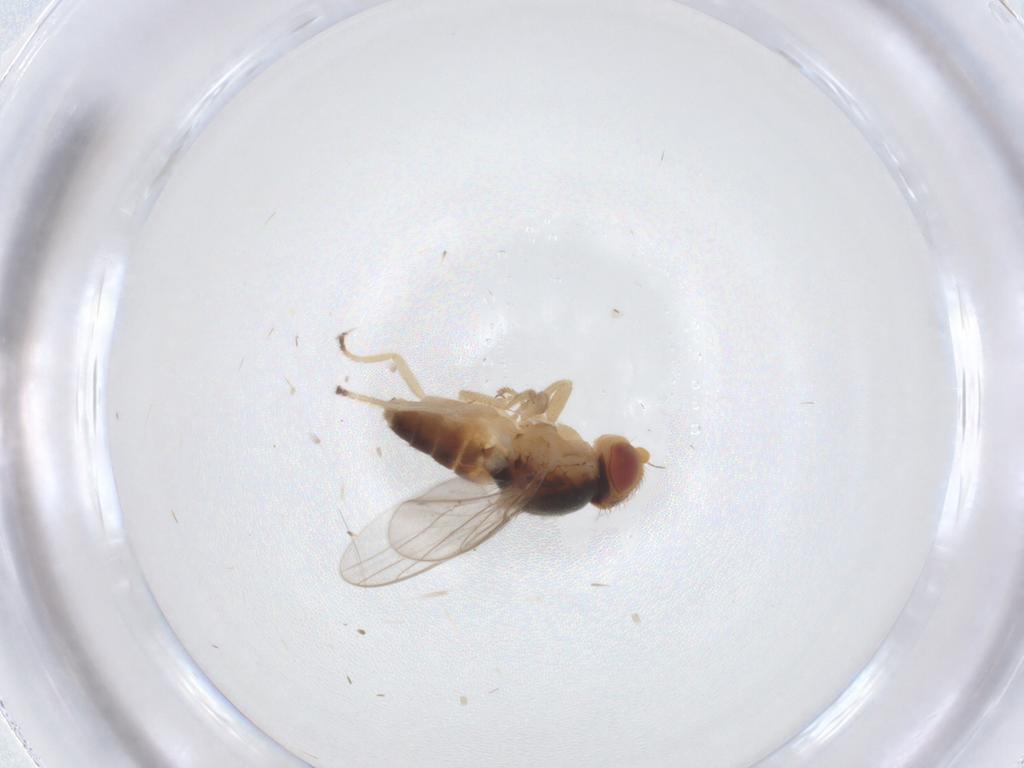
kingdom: Animalia
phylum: Arthropoda
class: Insecta
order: Diptera
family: Chloropidae
